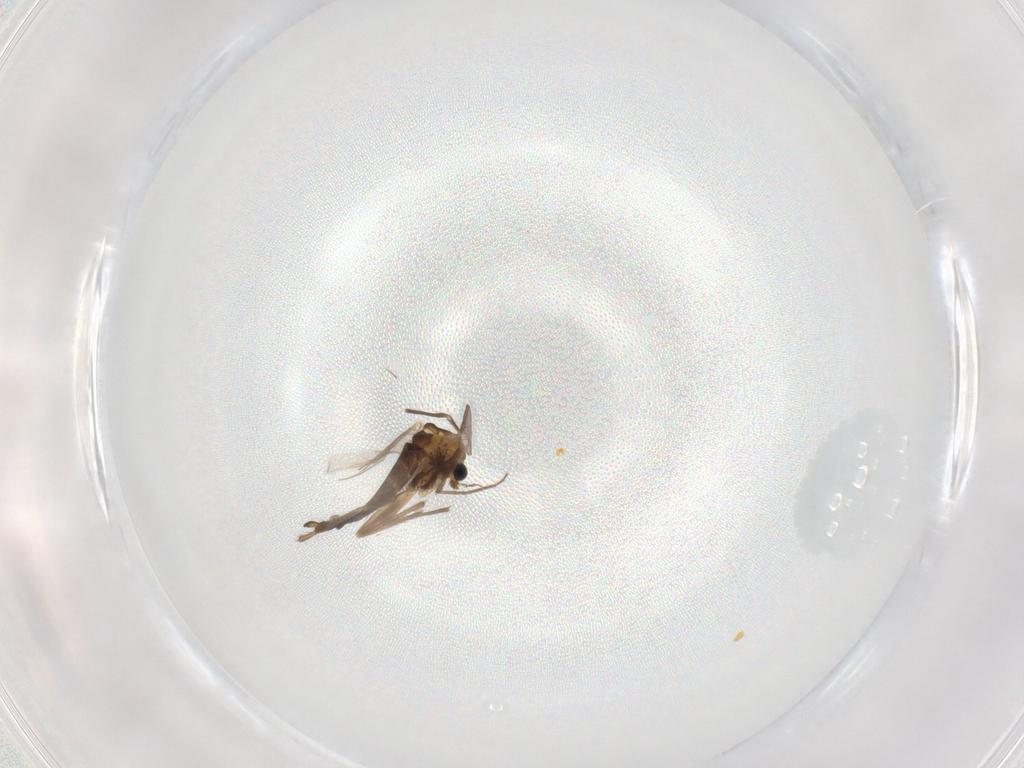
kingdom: Animalia
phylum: Arthropoda
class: Insecta
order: Diptera
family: Chironomidae
